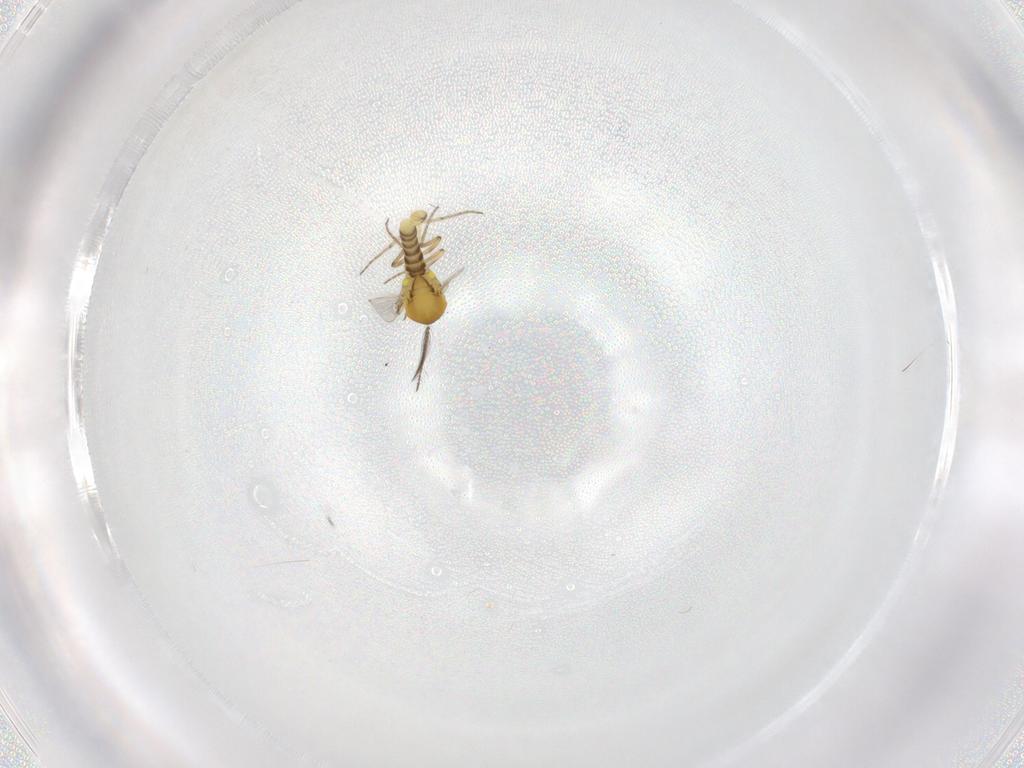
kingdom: Animalia
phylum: Arthropoda
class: Insecta
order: Diptera
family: Ceratopogonidae
